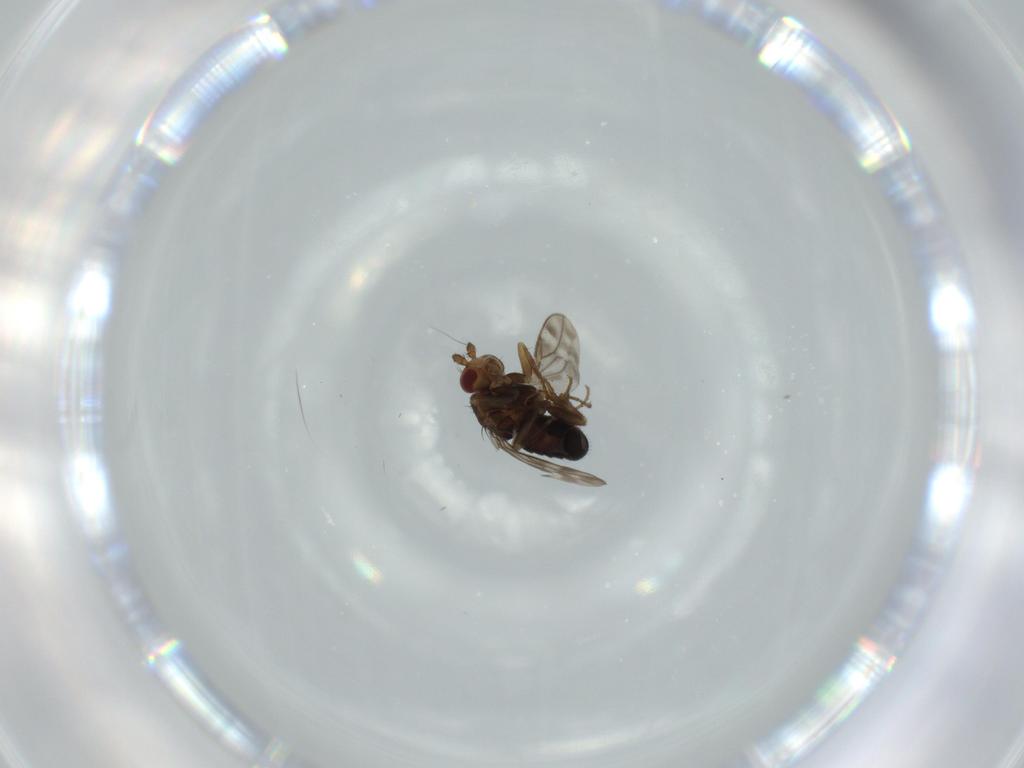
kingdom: Animalia
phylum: Arthropoda
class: Insecta
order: Diptera
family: Sphaeroceridae
